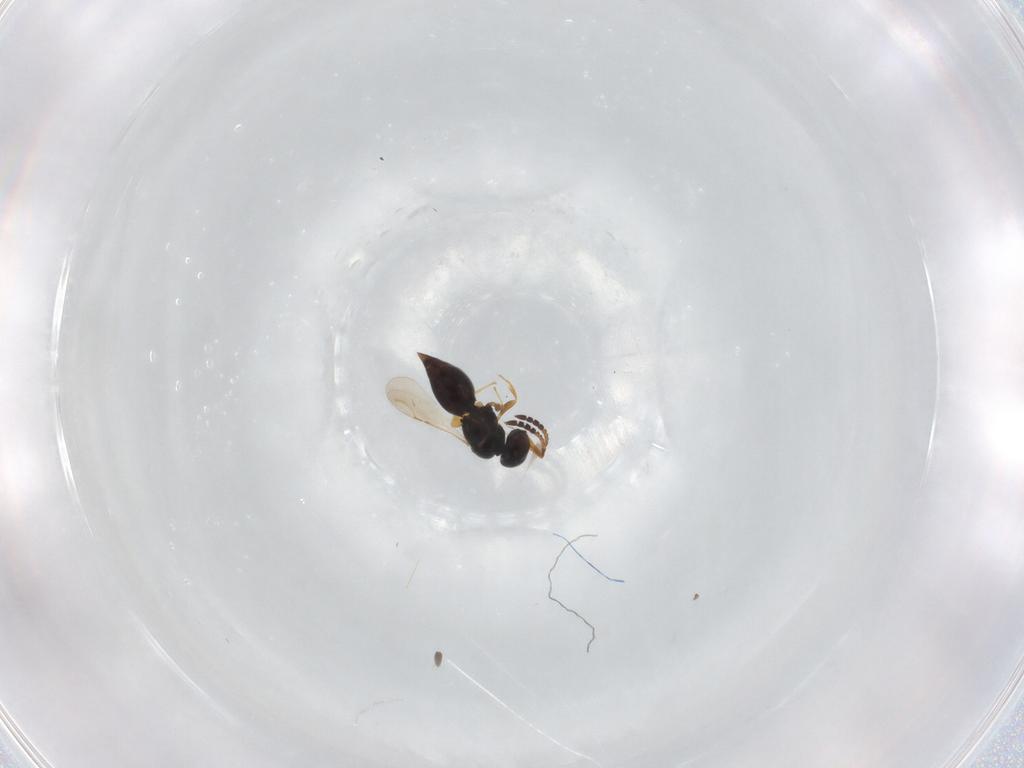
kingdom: Animalia
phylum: Arthropoda
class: Insecta
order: Hymenoptera
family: Ceraphronidae
